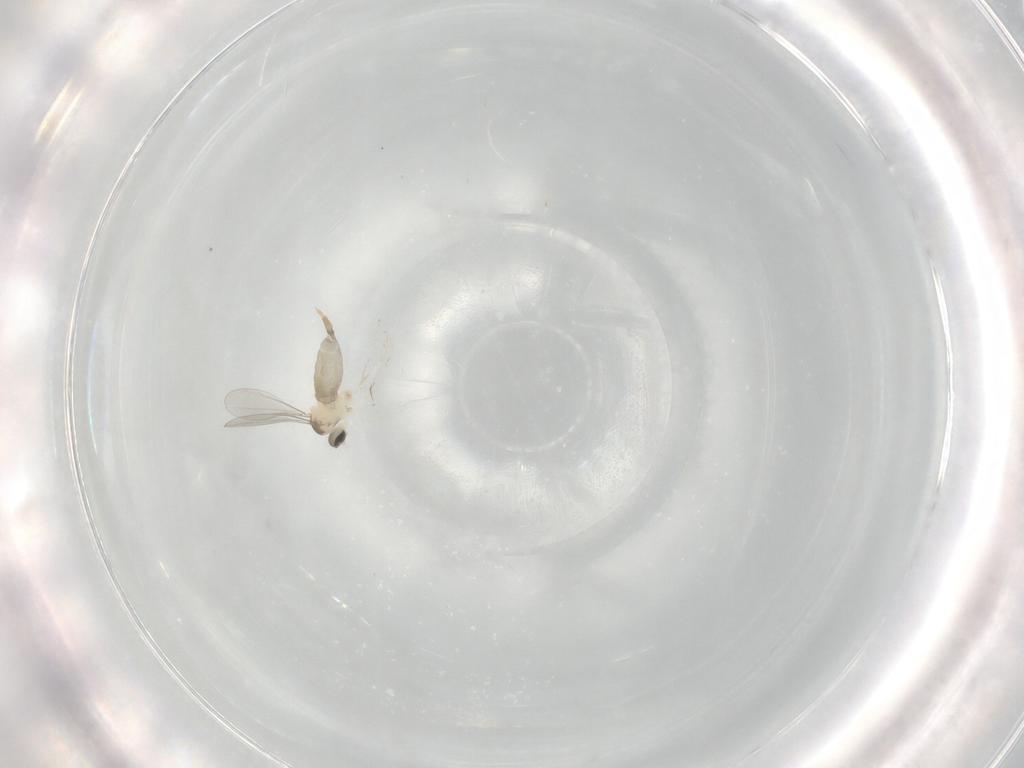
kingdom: Animalia
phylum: Arthropoda
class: Insecta
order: Diptera
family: Cecidomyiidae
